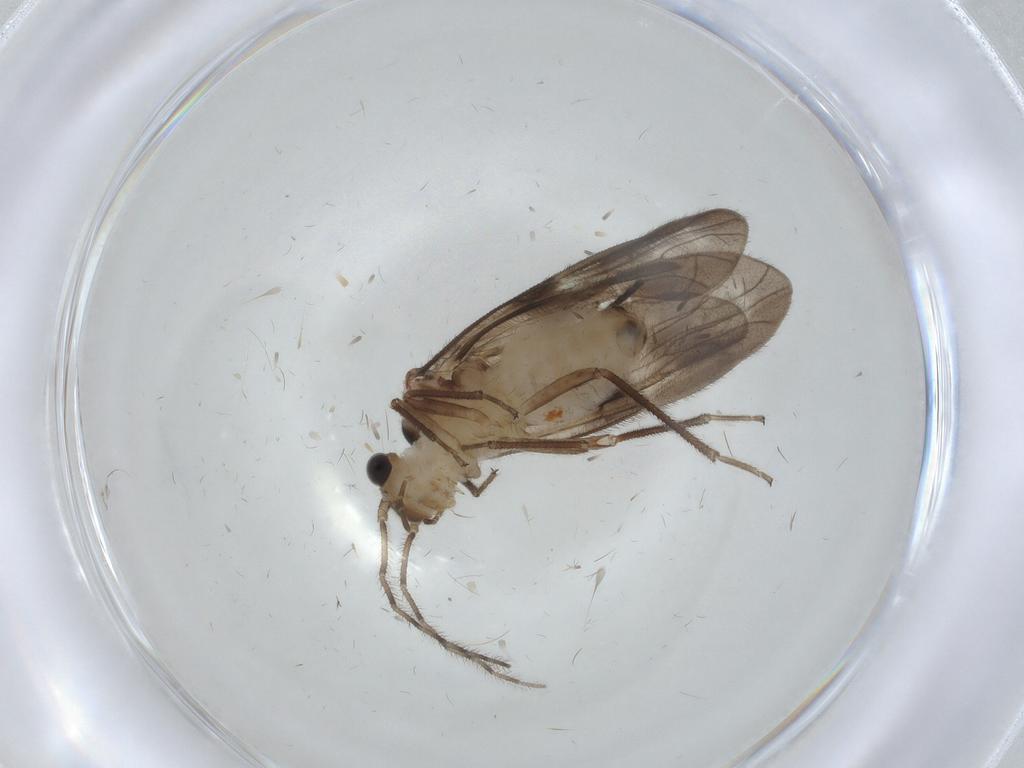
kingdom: Animalia
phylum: Arthropoda
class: Insecta
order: Psocodea
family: Amphipsocidae
